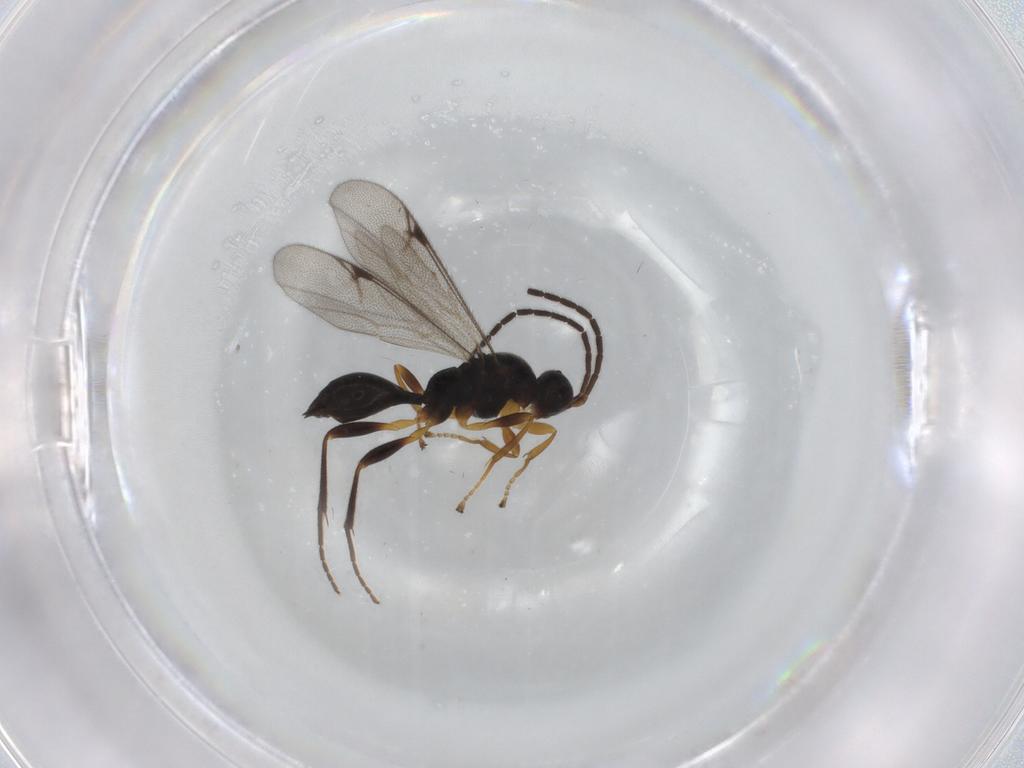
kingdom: Animalia
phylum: Arthropoda
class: Insecta
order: Hymenoptera
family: Proctotrupidae
